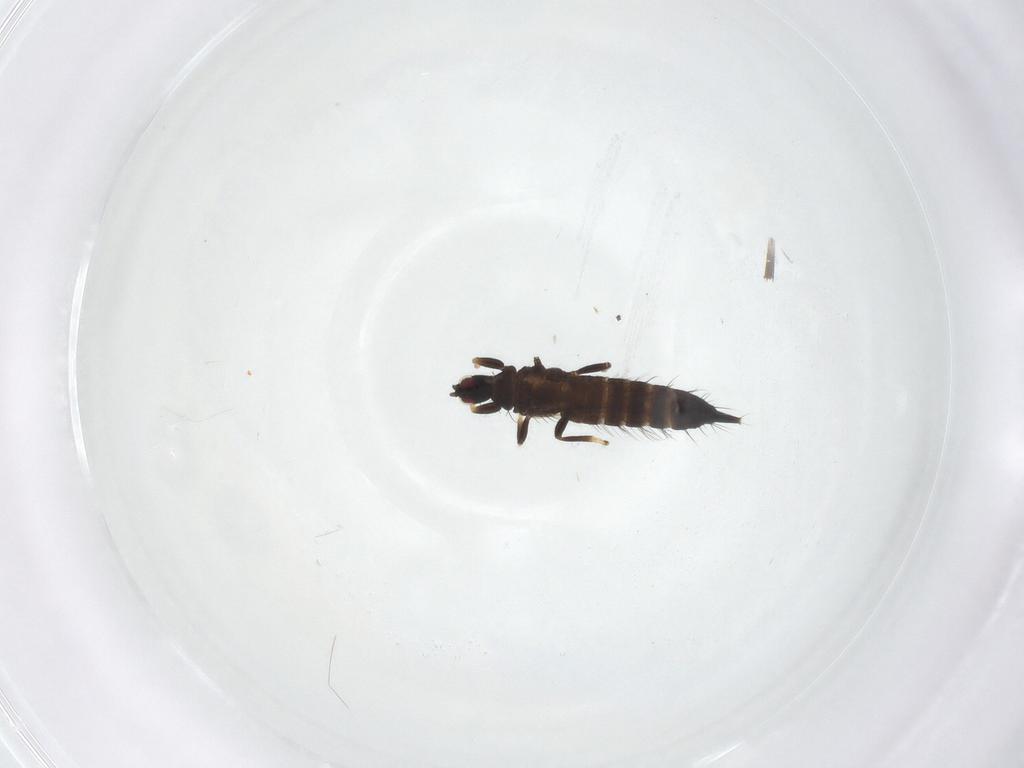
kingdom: Animalia
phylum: Arthropoda
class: Insecta
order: Thysanoptera
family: Phlaeothripidae
